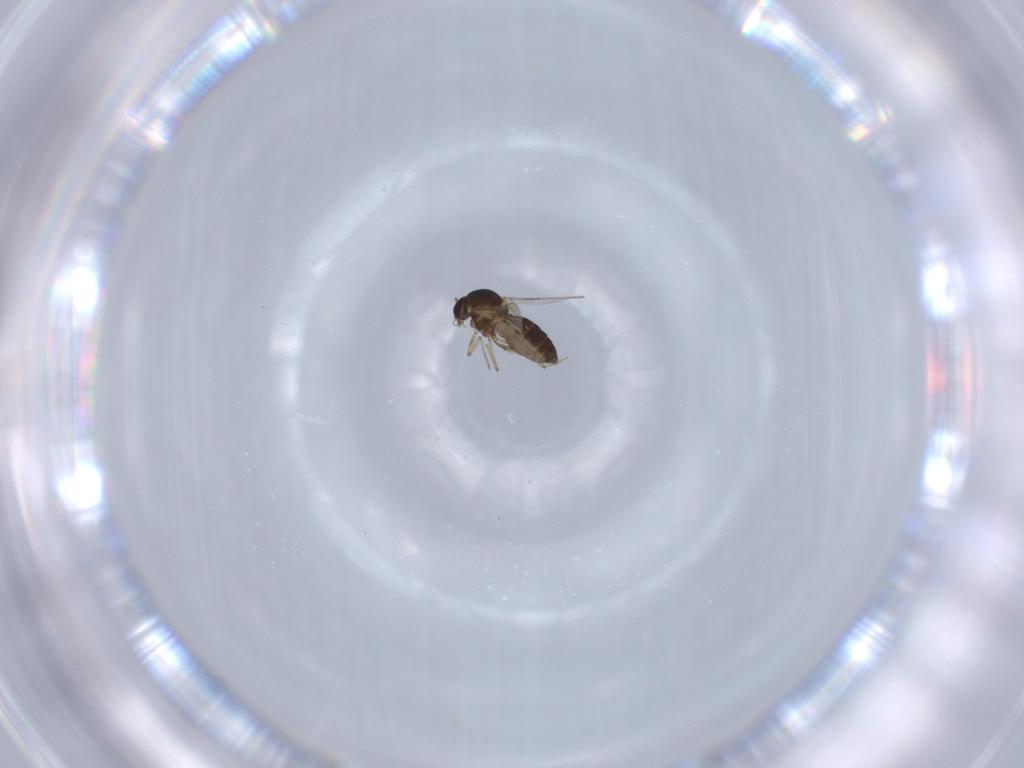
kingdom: Animalia
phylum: Arthropoda
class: Insecta
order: Diptera
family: Ceratopogonidae
